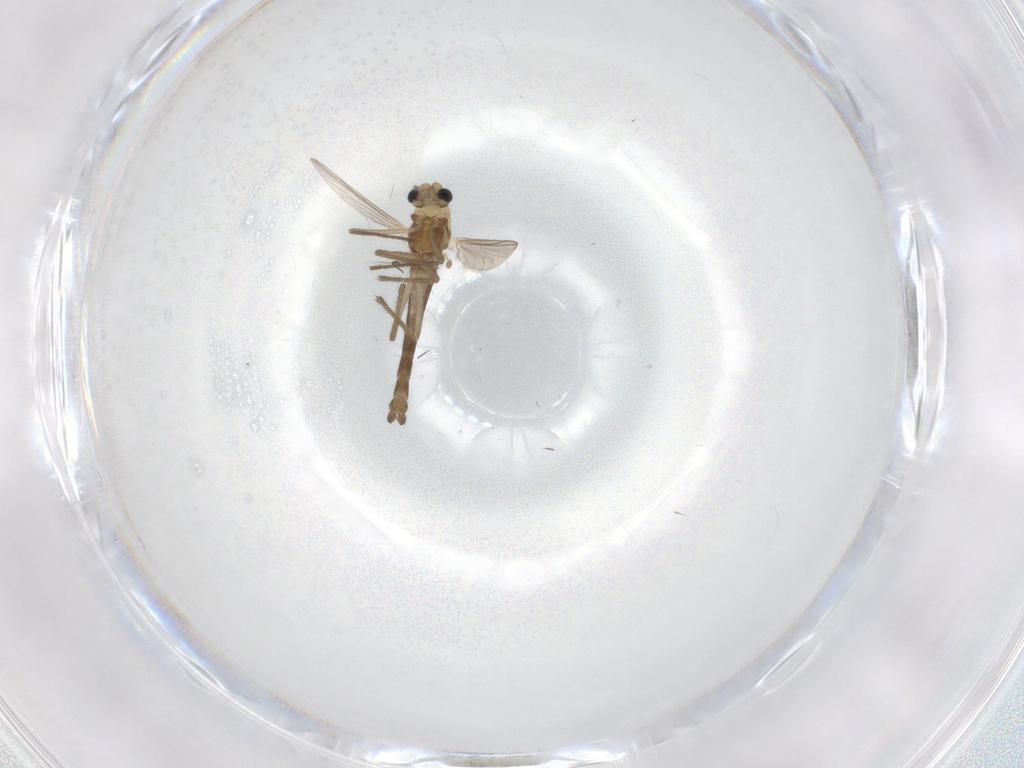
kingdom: Animalia
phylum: Arthropoda
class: Insecta
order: Diptera
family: Chironomidae
